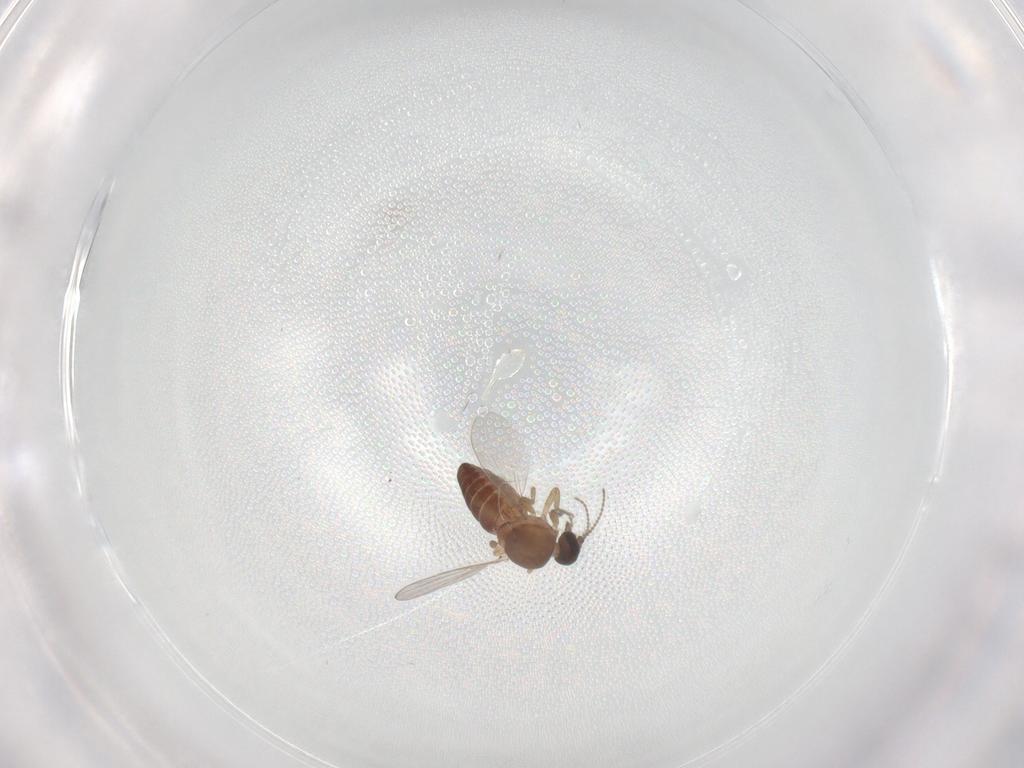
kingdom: Animalia
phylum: Arthropoda
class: Insecta
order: Diptera
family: Ceratopogonidae
